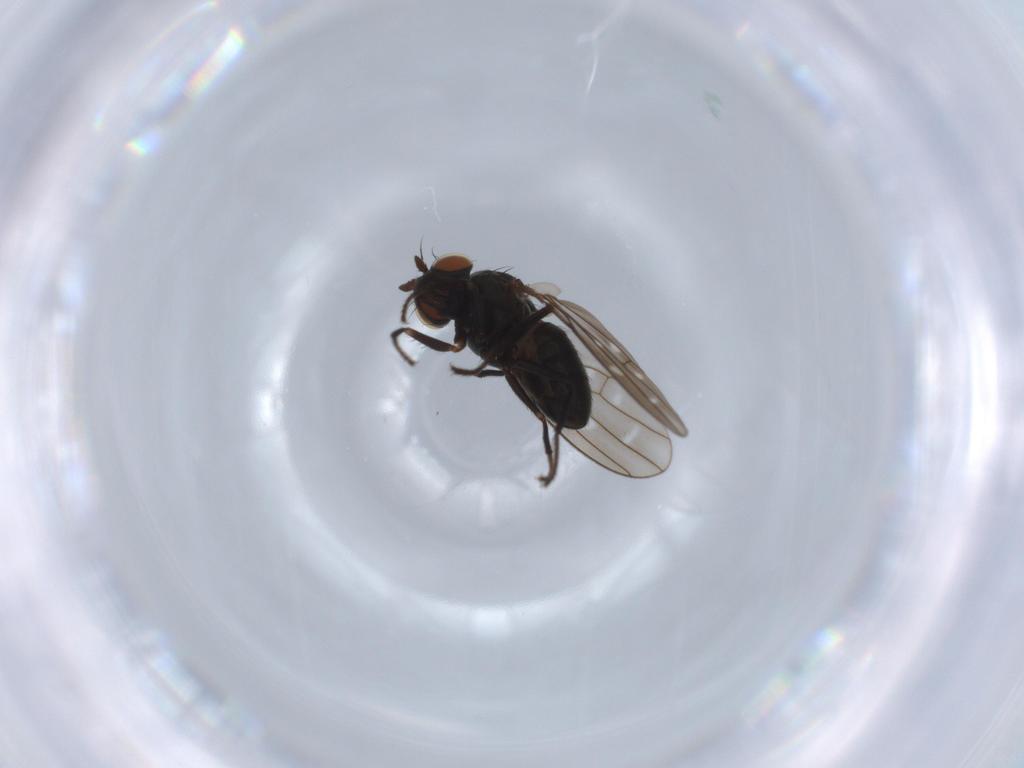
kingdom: Animalia
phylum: Arthropoda
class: Insecta
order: Diptera
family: Ephydridae
